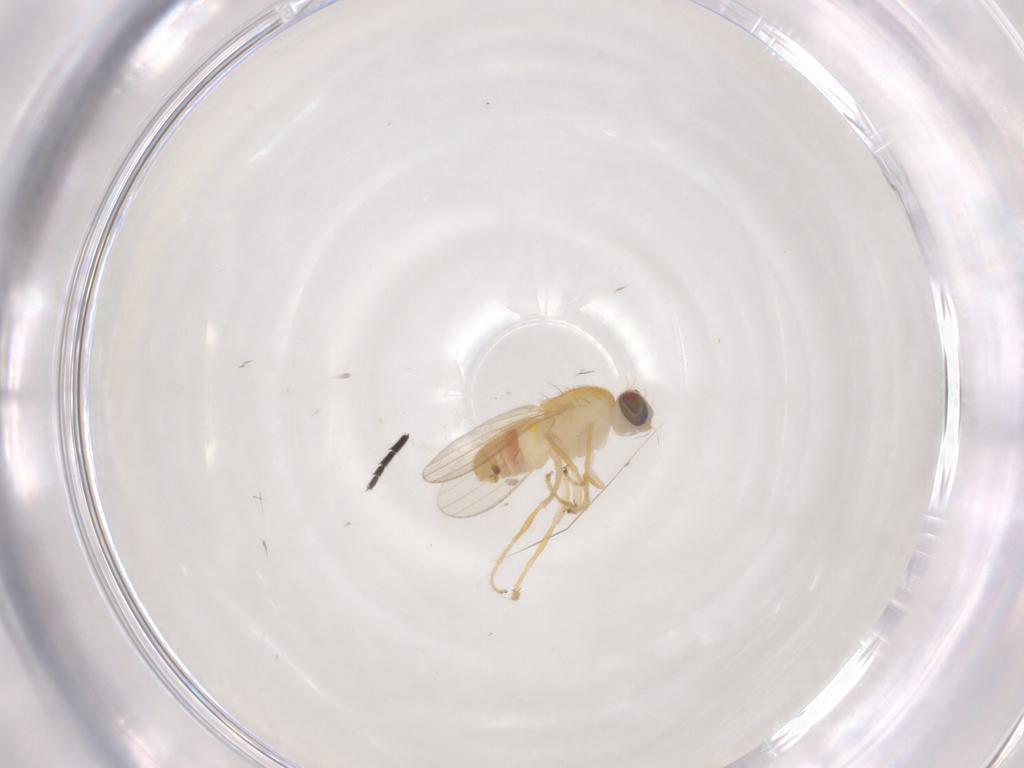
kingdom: Animalia
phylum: Arthropoda
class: Insecta
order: Diptera
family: Chyromyidae
